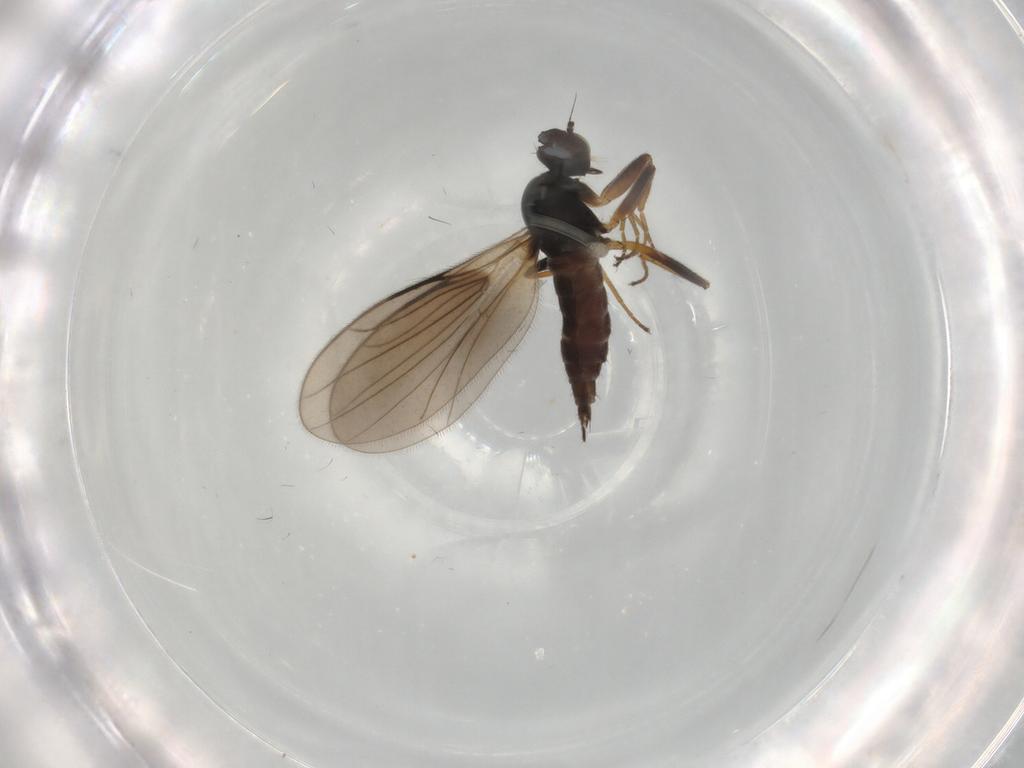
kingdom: Animalia
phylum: Arthropoda
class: Insecta
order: Diptera
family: Hybotidae
